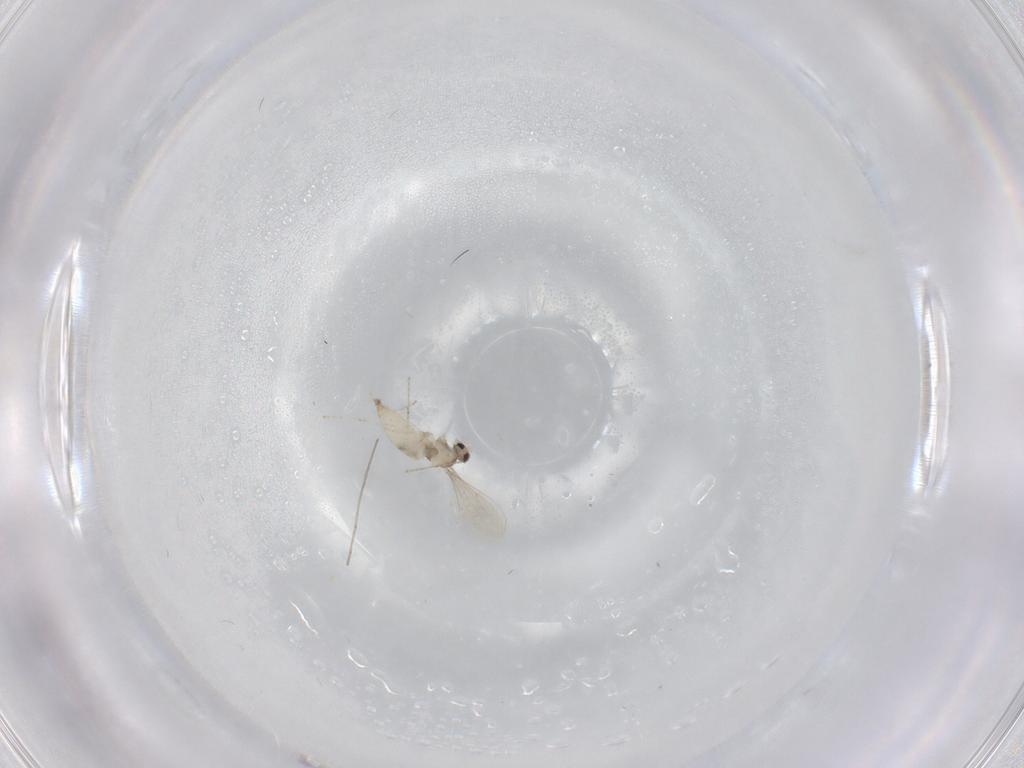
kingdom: Animalia
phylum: Arthropoda
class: Insecta
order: Diptera
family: Cecidomyiidae
